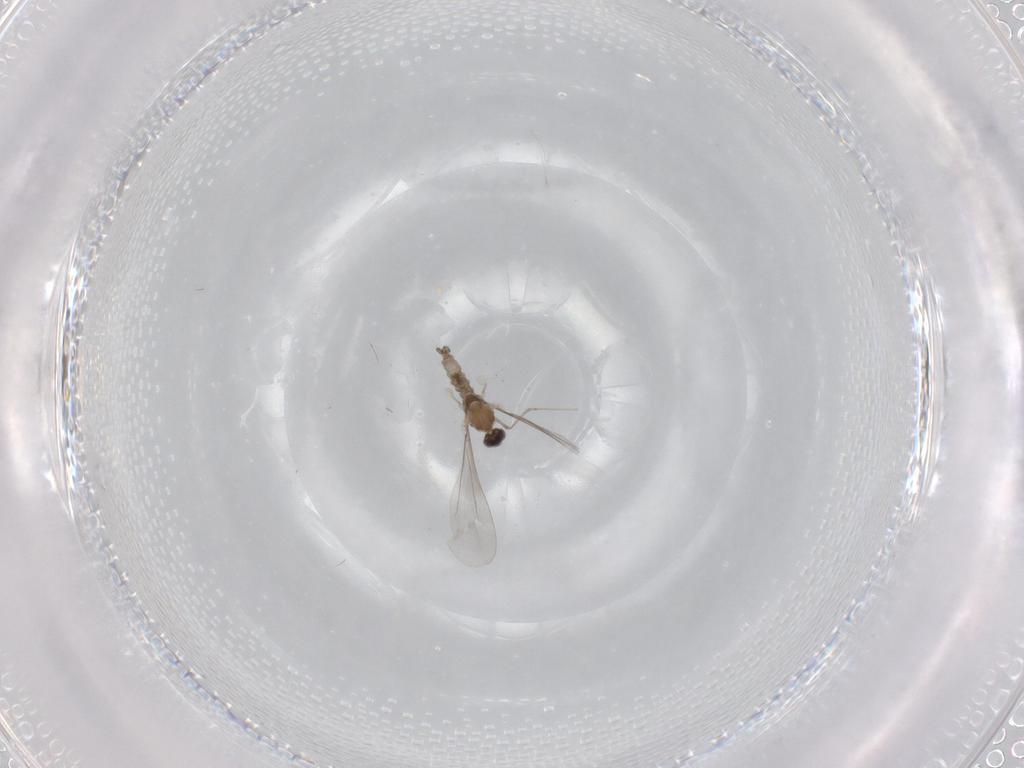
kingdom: Animalia
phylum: Arthropoda
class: Insecta
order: Diptera
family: Cecidomyiidae
